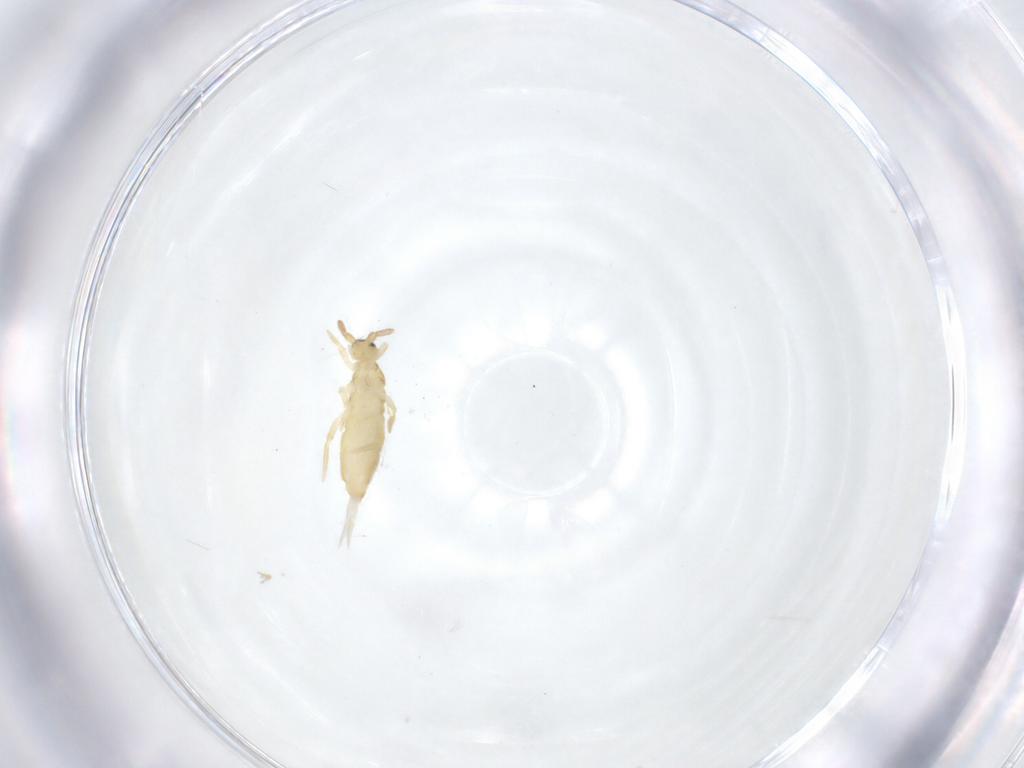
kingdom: Animalia
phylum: Arthropoda
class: Collembola
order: Entomobryomorpha
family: Entomobryidae
